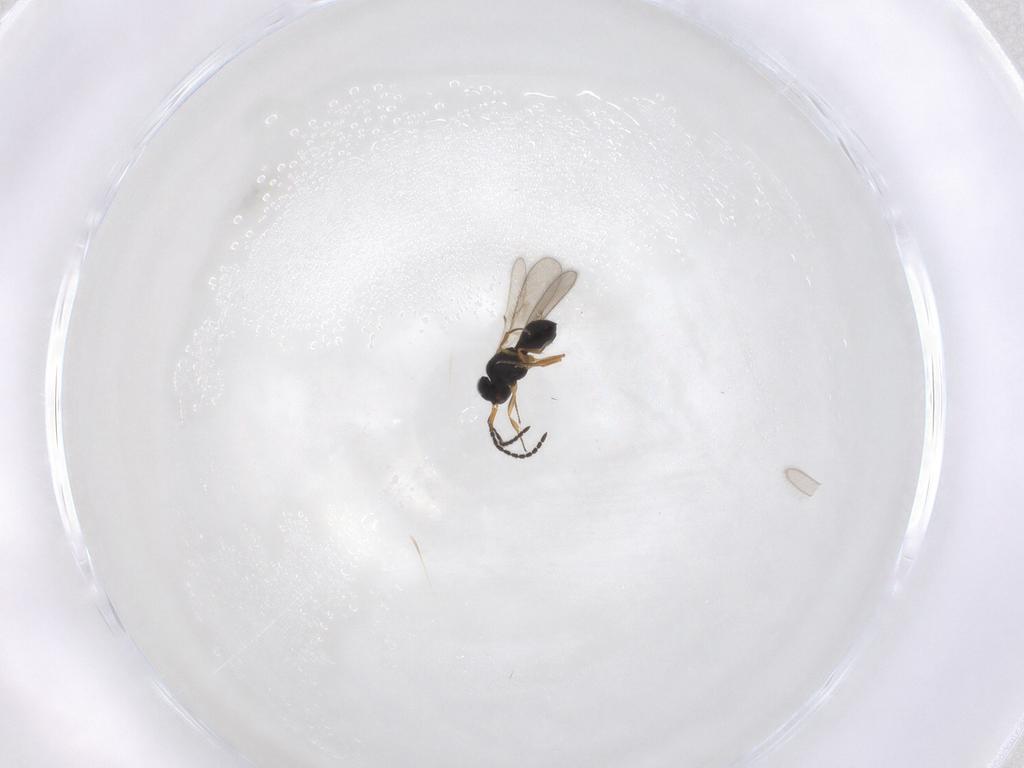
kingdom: Animalia
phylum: Arthropoda
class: Insecta
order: Hymenoptera
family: Scelionidae
